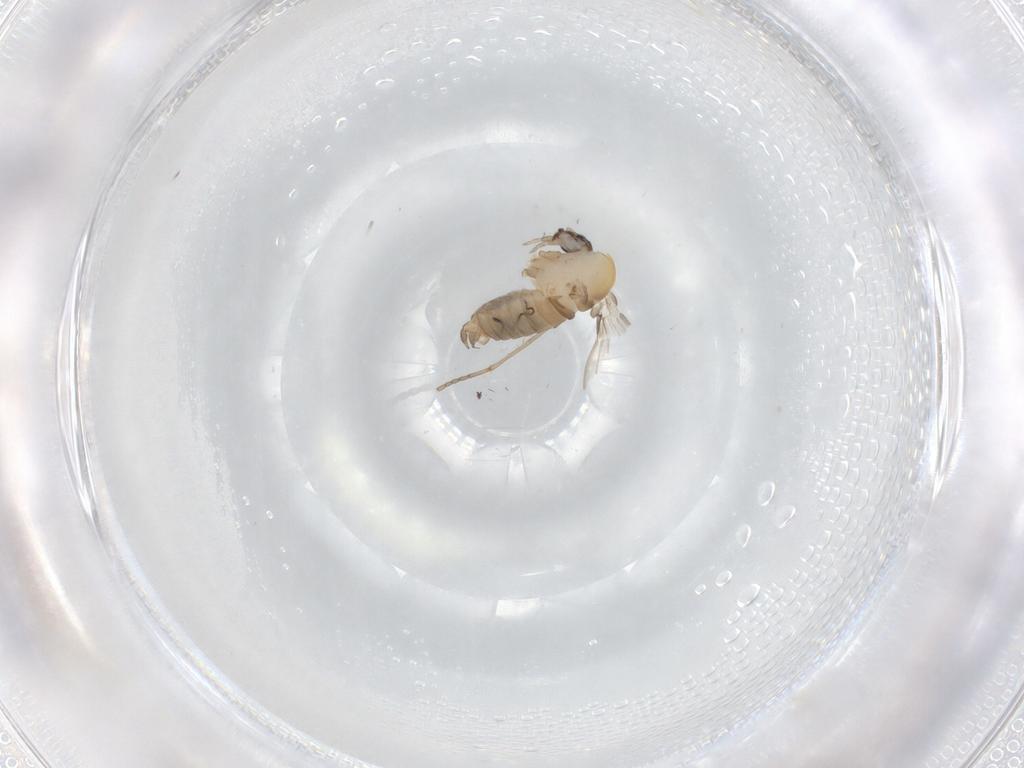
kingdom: Animalia
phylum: Arthropoda
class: Insecta
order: Diptera
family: Psychodidae
